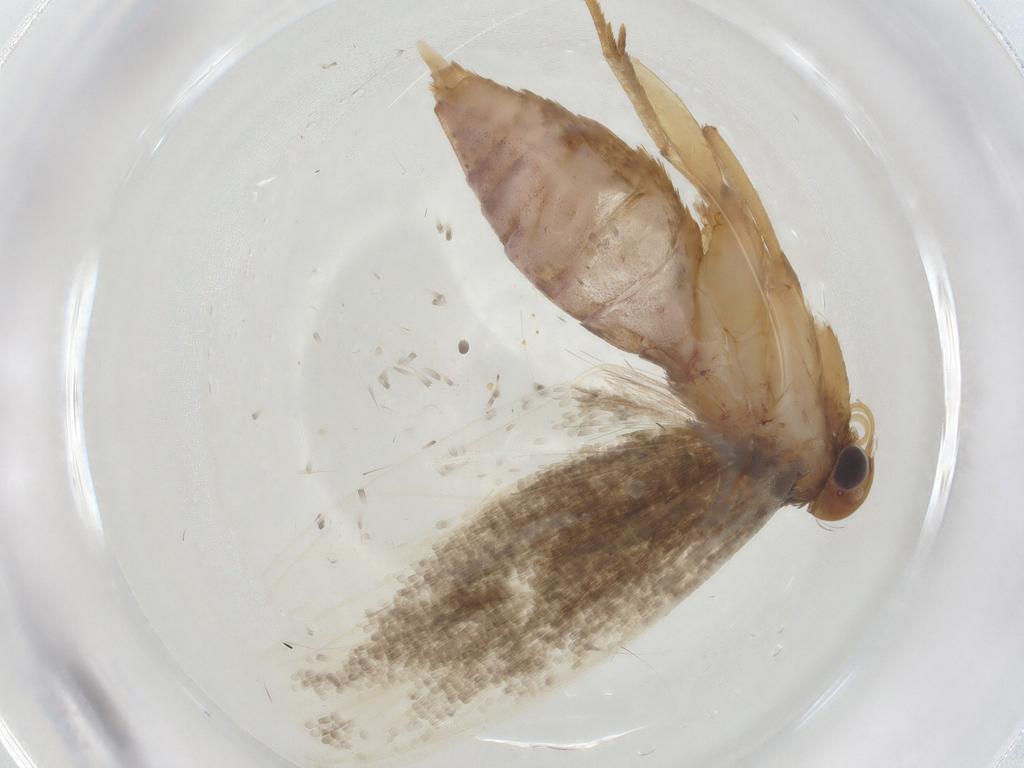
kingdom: Animalia
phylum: Arthropoda
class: Insecta
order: Lepidoptera
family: Gelechiidae
